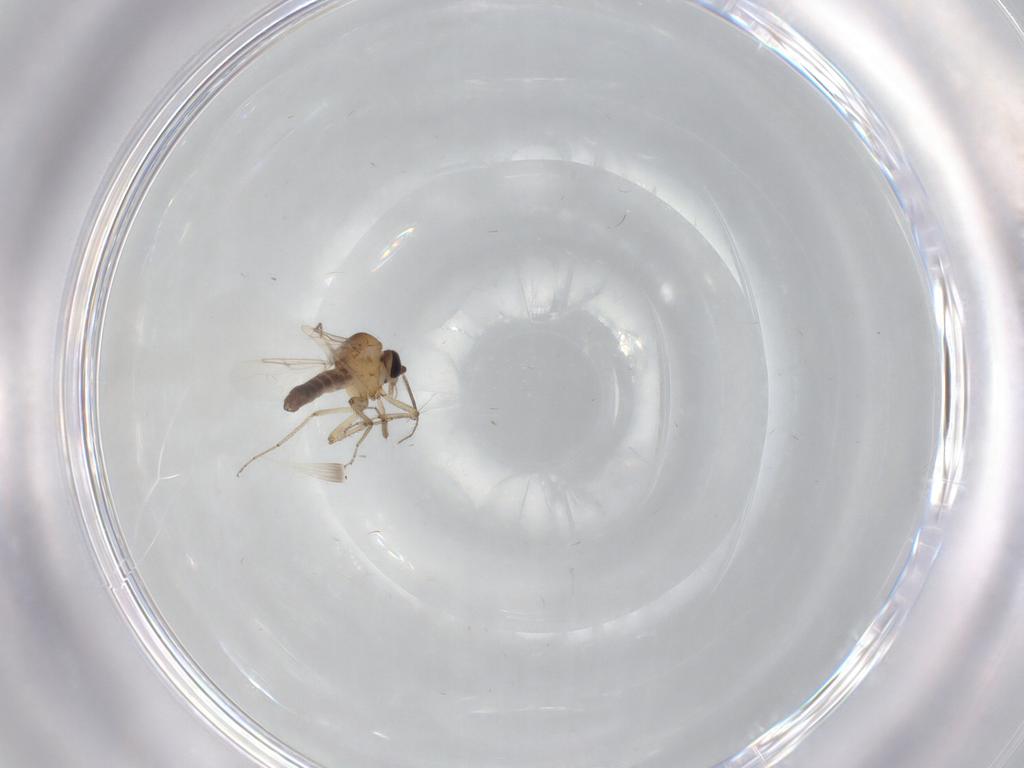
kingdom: Animalia
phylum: Arthropoda
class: Insecta
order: Diptera
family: Ceratopogonidae
